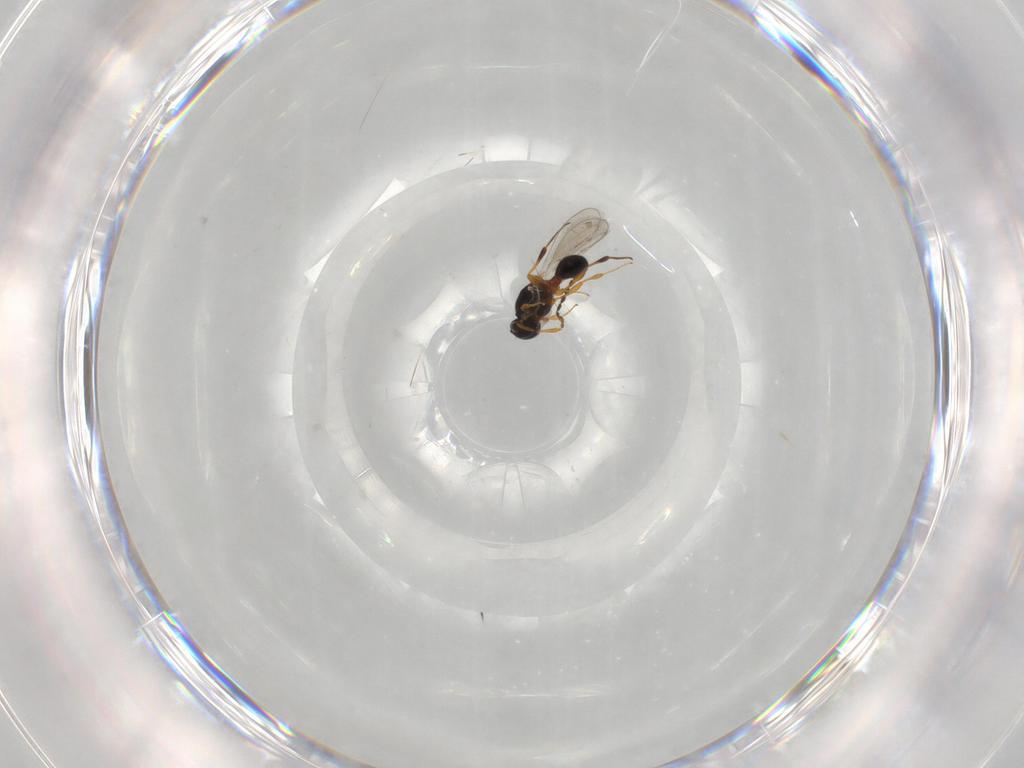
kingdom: Animalia
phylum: Arthropoda
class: Insecta
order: Hymenoptera
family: Platygastridae
